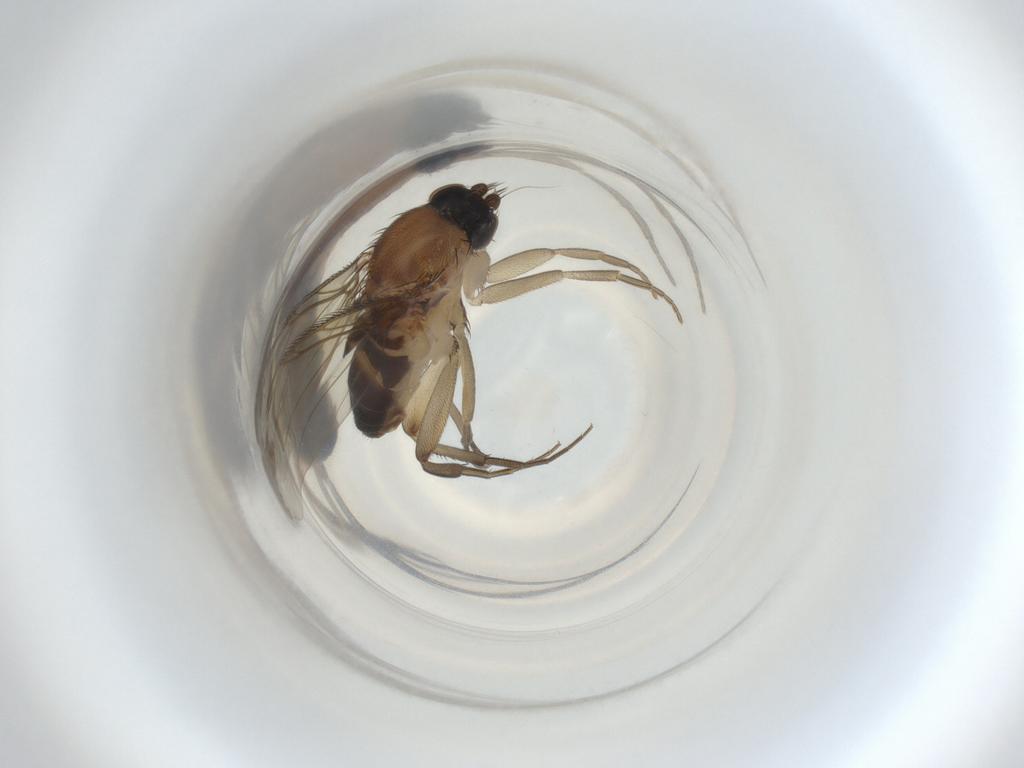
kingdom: Animalia
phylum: Arthropoda
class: Insecta
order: Diptera
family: Phoridae
